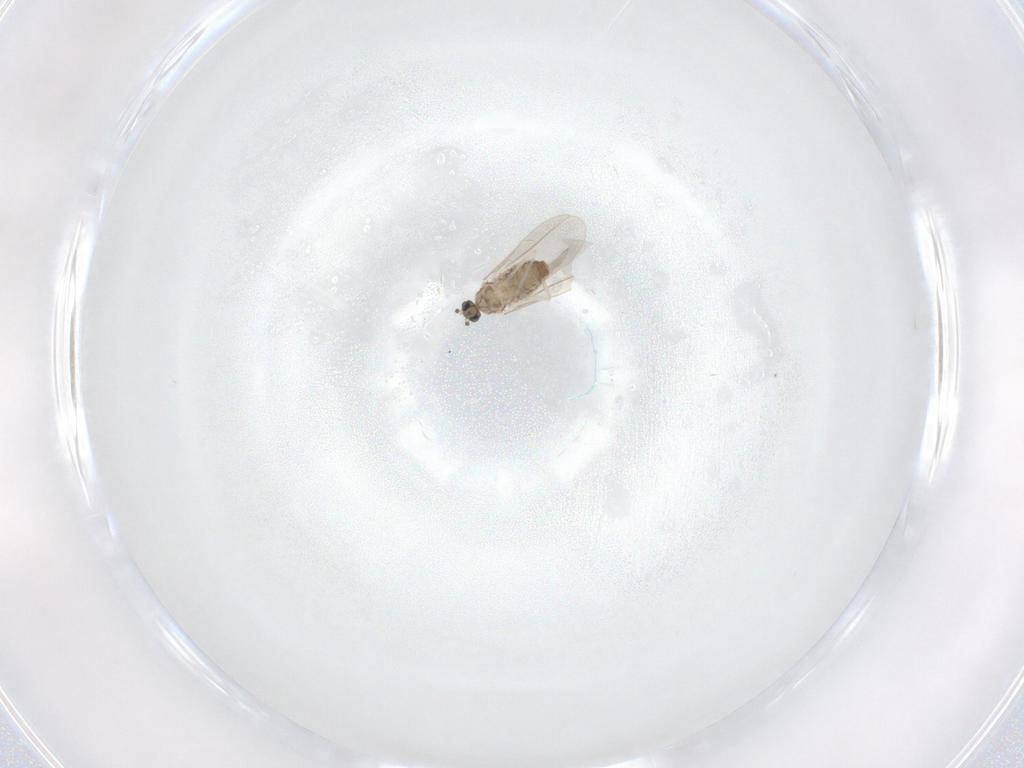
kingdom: Animalia
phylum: Arthropoda
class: Insecta
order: Diptera
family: Cecidomyiidae
